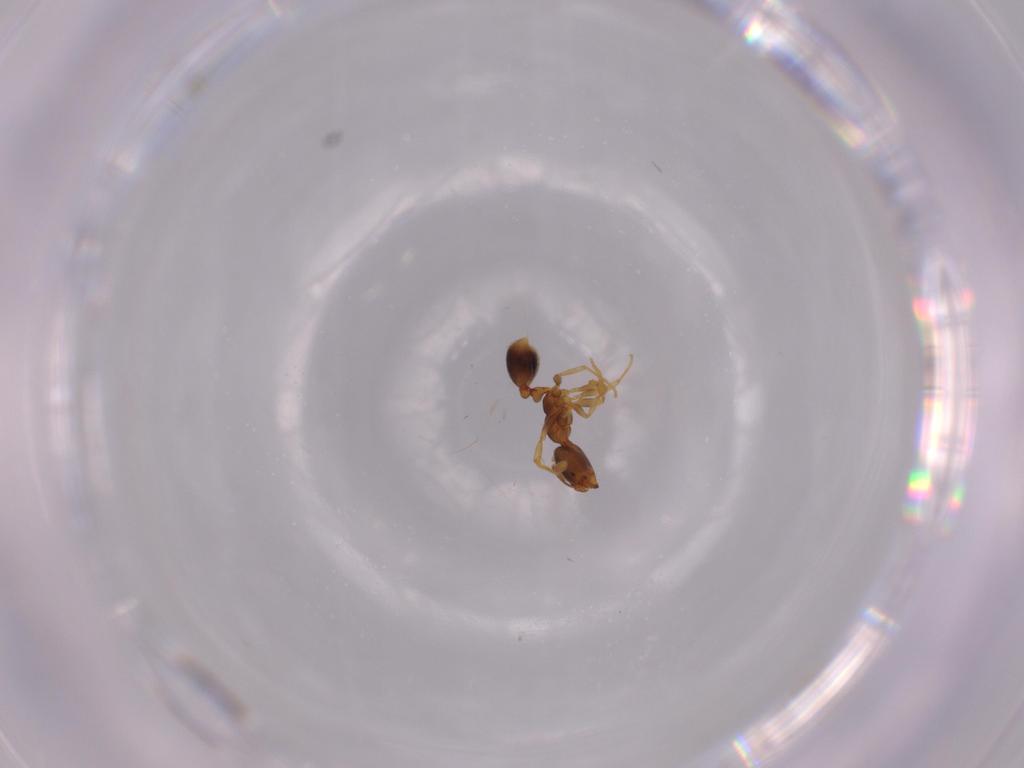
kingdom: Animalia
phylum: Arthropoda
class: Insecta
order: Hymenoptera
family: Formicidae
